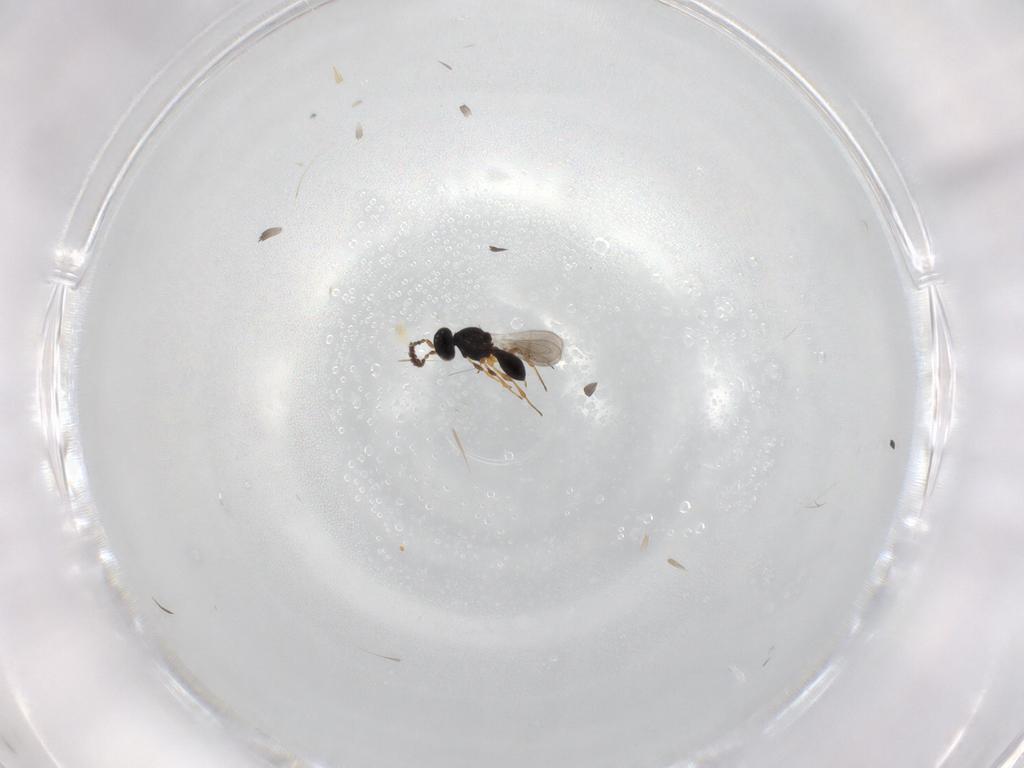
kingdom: Animalia
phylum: Arthropoda
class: Insecta
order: Hymenoptera
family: Platygastridae
